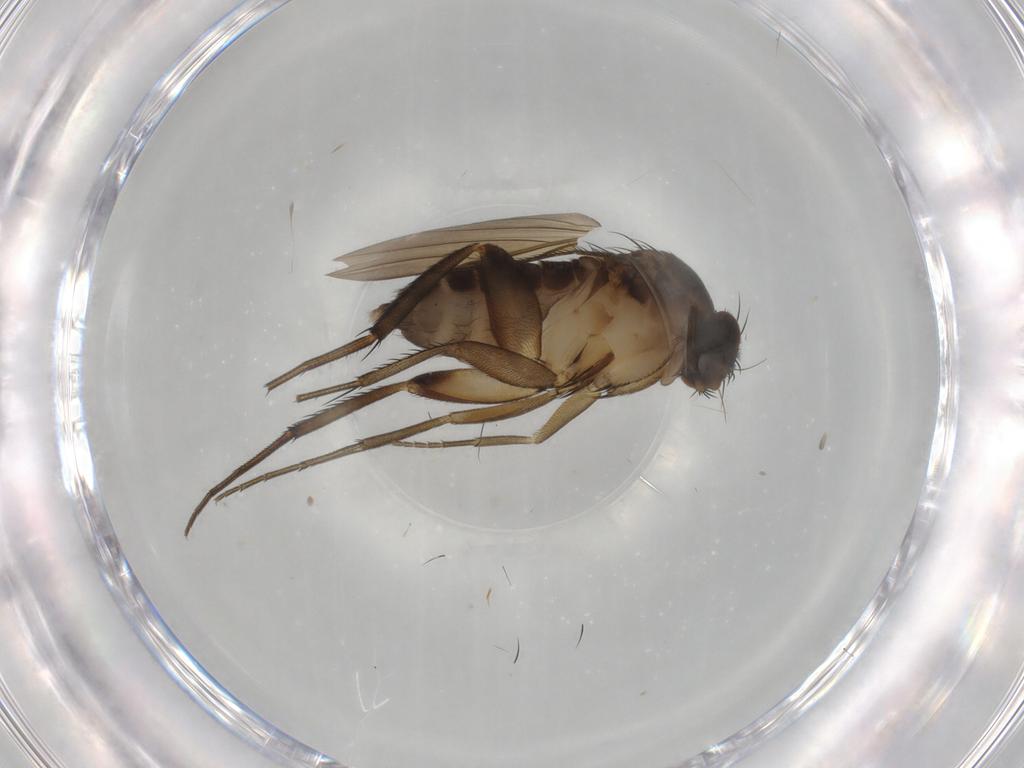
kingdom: Animalia
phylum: Arthropoda
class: Insecta
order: Diptera
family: Phoridae
